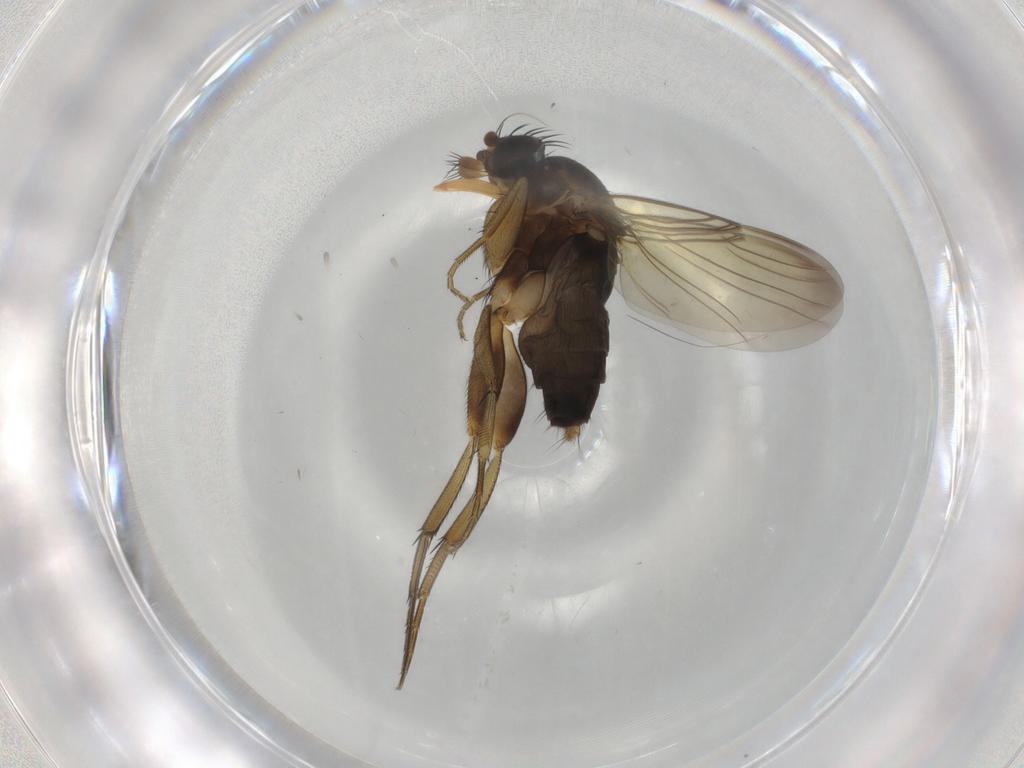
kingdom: Animalia
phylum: Arthropoda
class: Insecta
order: Diptera
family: Phoridae
